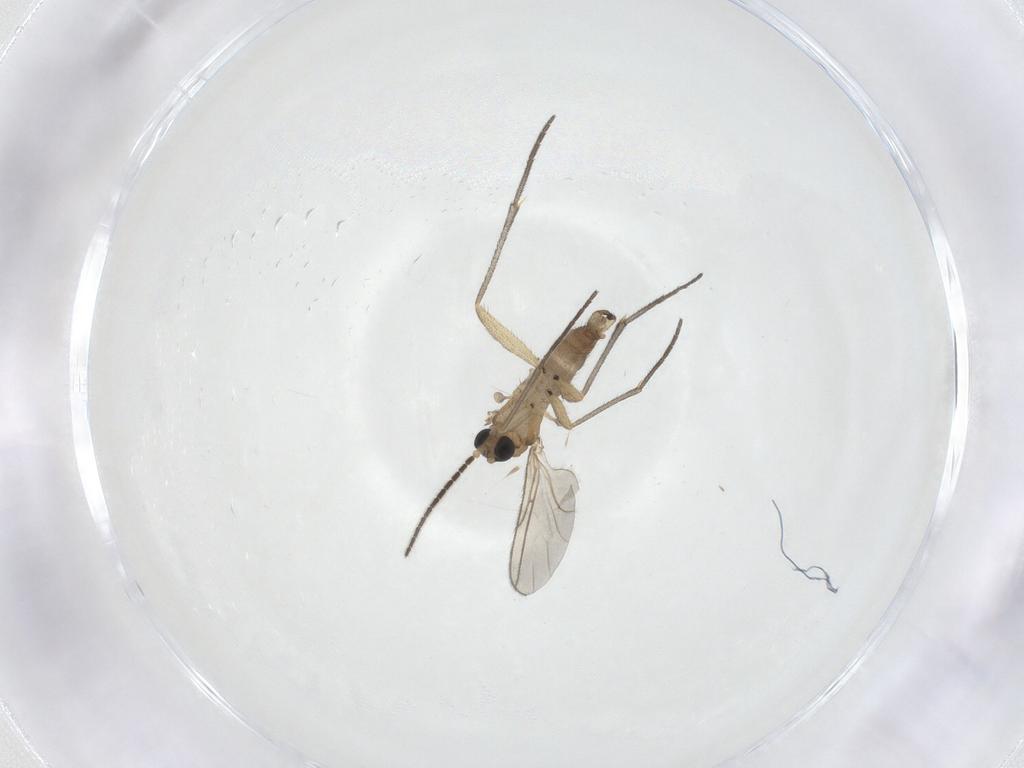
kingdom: Animalia
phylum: Arthropoda
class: Insecta
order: Diptera
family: Sciaridae
